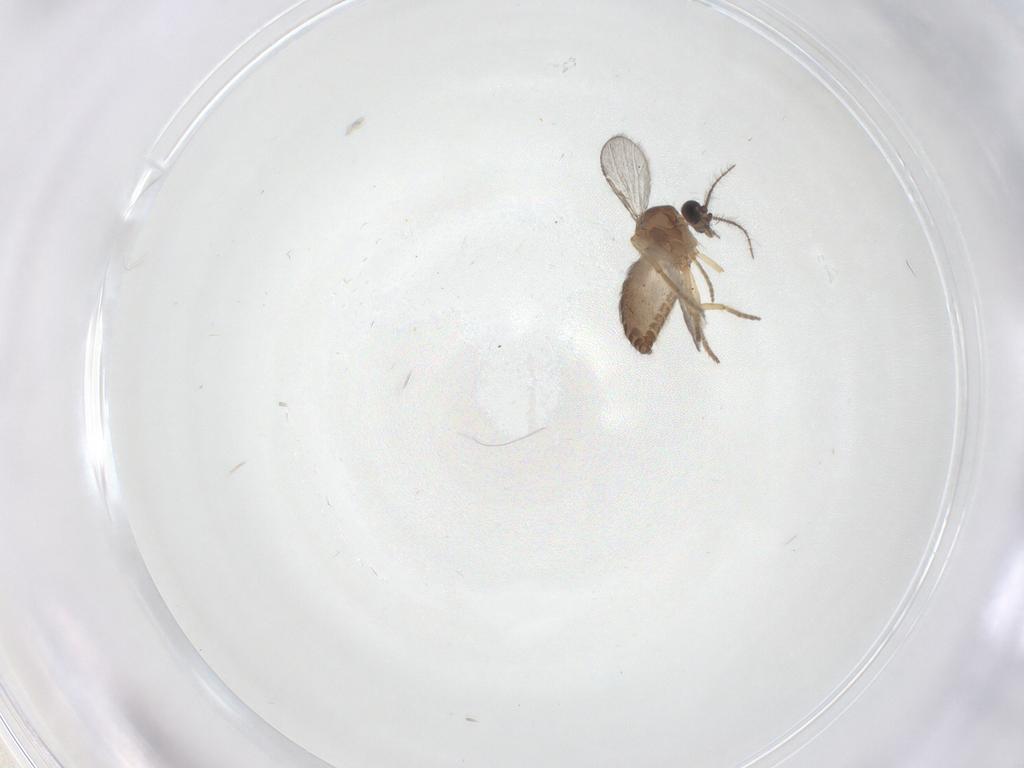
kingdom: Animalia
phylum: Arthropoda
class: Insecta
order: Diptera
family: Ceratopogonidae
